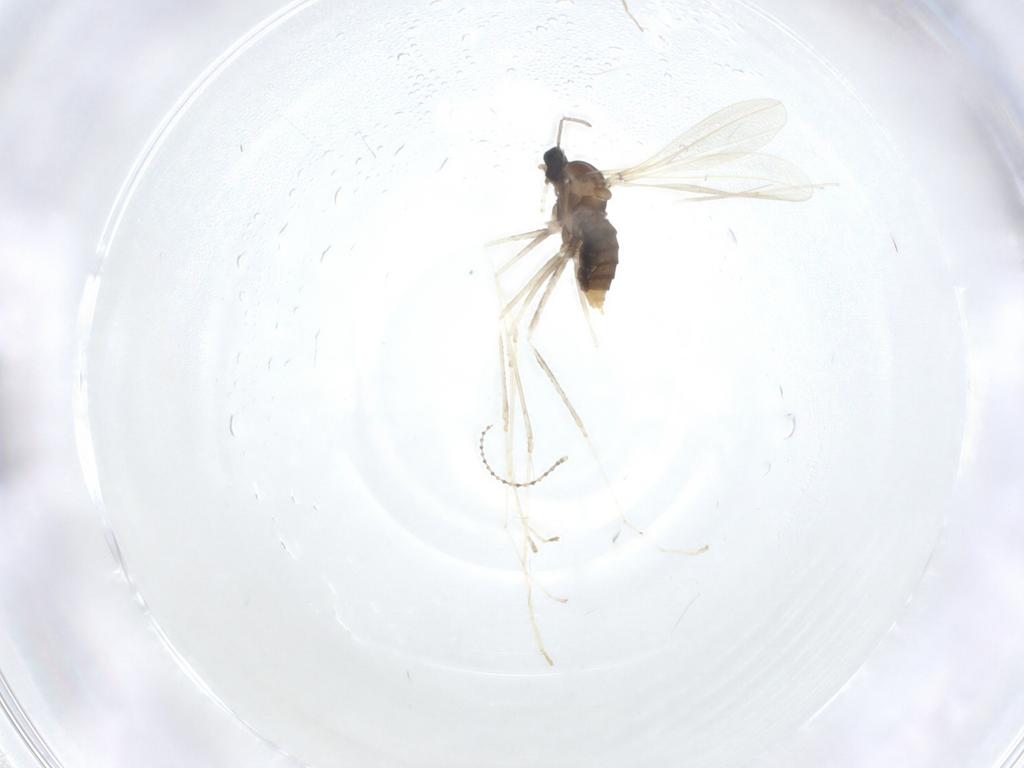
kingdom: Animalia
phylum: Arthropoda
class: Insecta
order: Diptera
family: Cecidomyiidae
